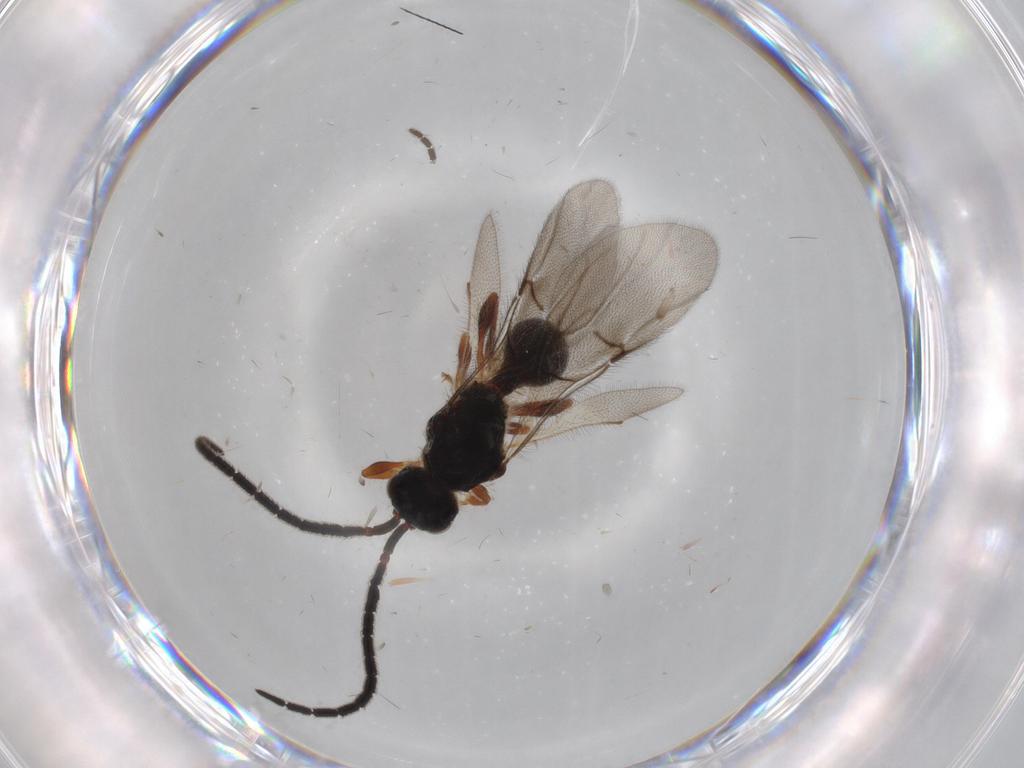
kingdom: Animalia
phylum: Arthropoda
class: Insecta
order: Hymenoptera
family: Diapriidae
